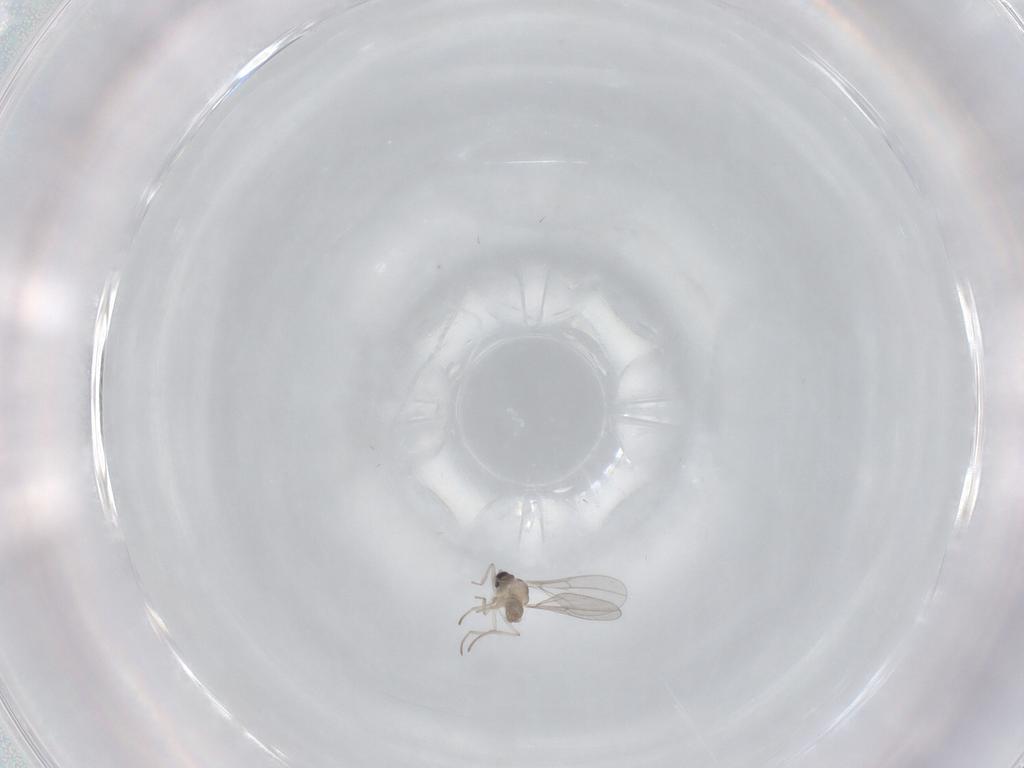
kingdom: Animalia
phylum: Arthropoda
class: Insecta
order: Diptera
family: Cecidomyiidae
